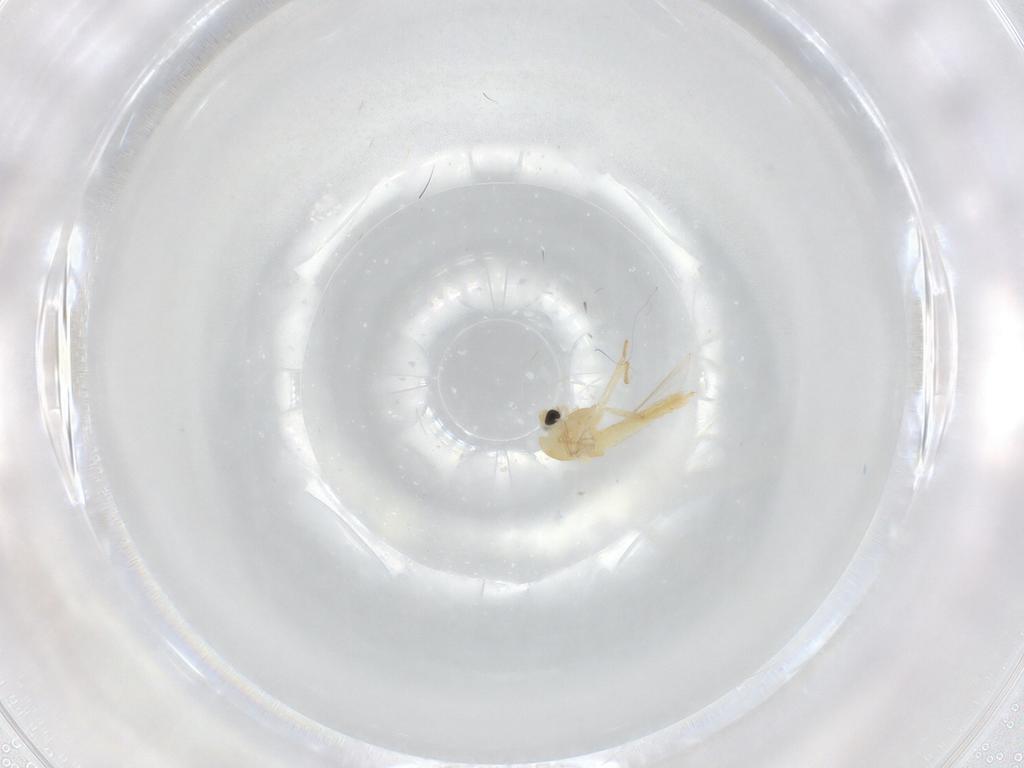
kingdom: Animalia
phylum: Arthropoda
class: Insecta
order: Diptera
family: Chironomidae
